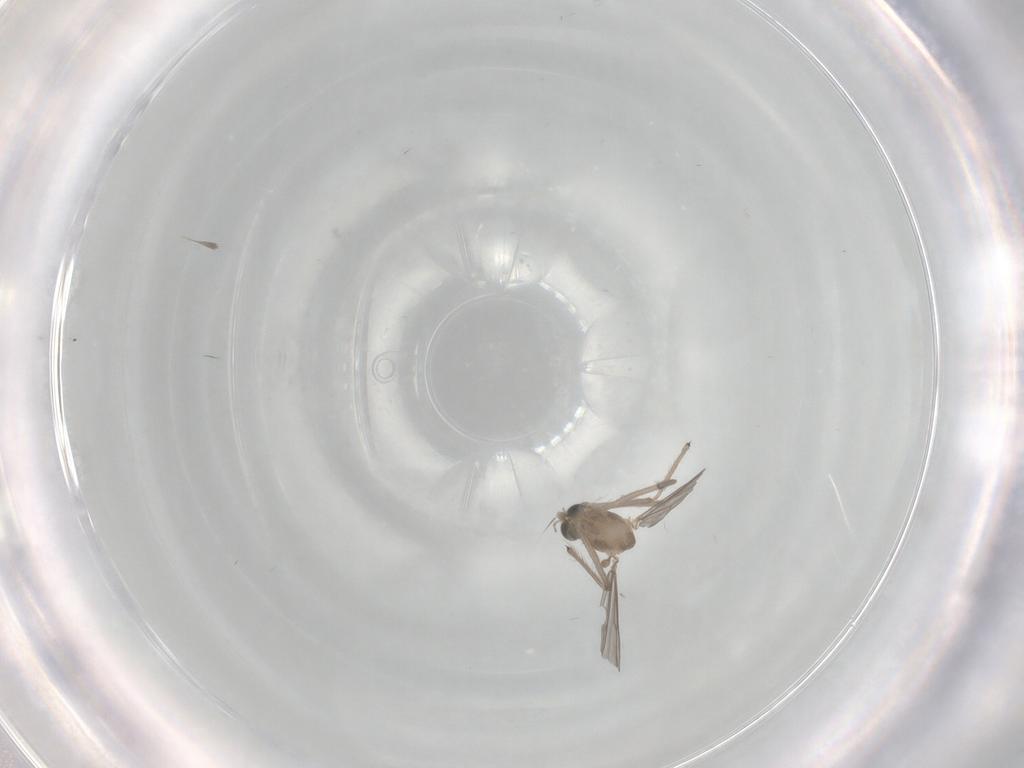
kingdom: Animalia
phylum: Arthropoda
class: Insecta
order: Diptera
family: Chironomidae
